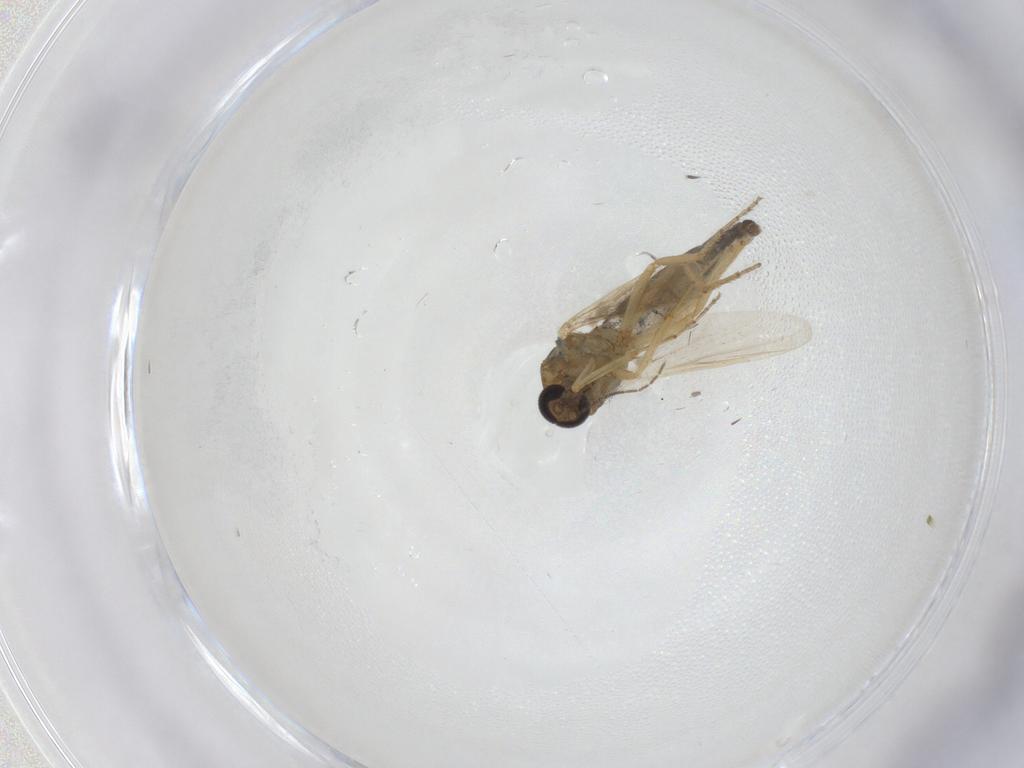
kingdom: Animalia
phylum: Arthropoda
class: Insecta
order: Diptera
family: Ceratopogonidae
